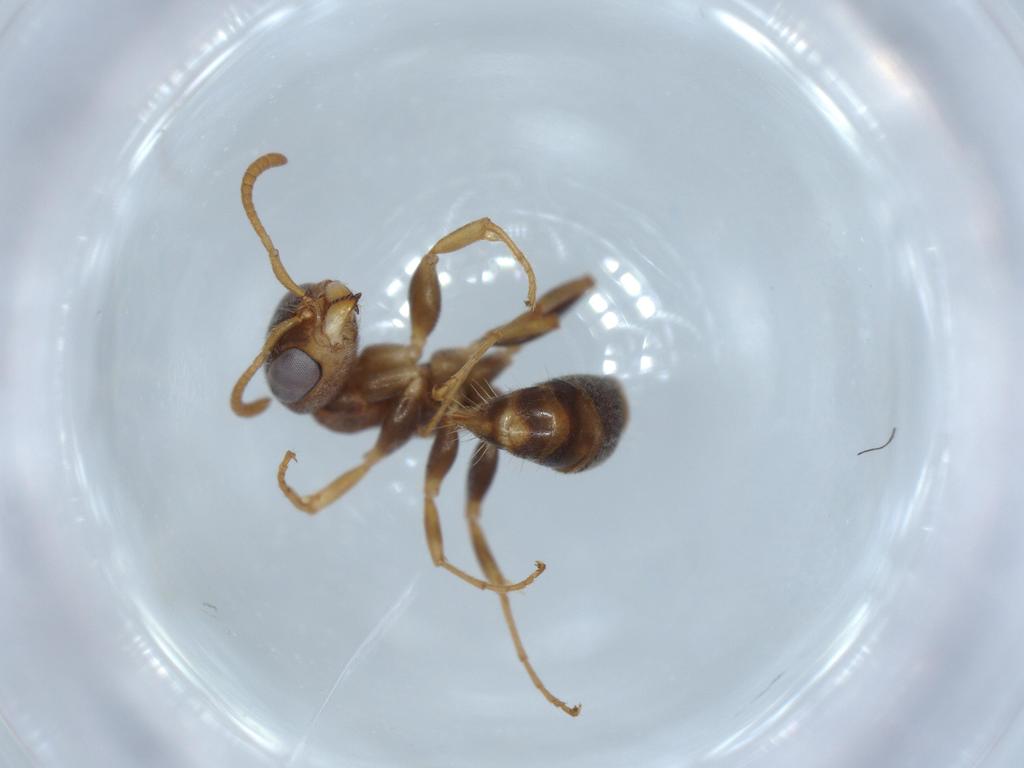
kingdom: Animalia
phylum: Arthropoda
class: Insecta
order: Hymenoptera
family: Formicidae
